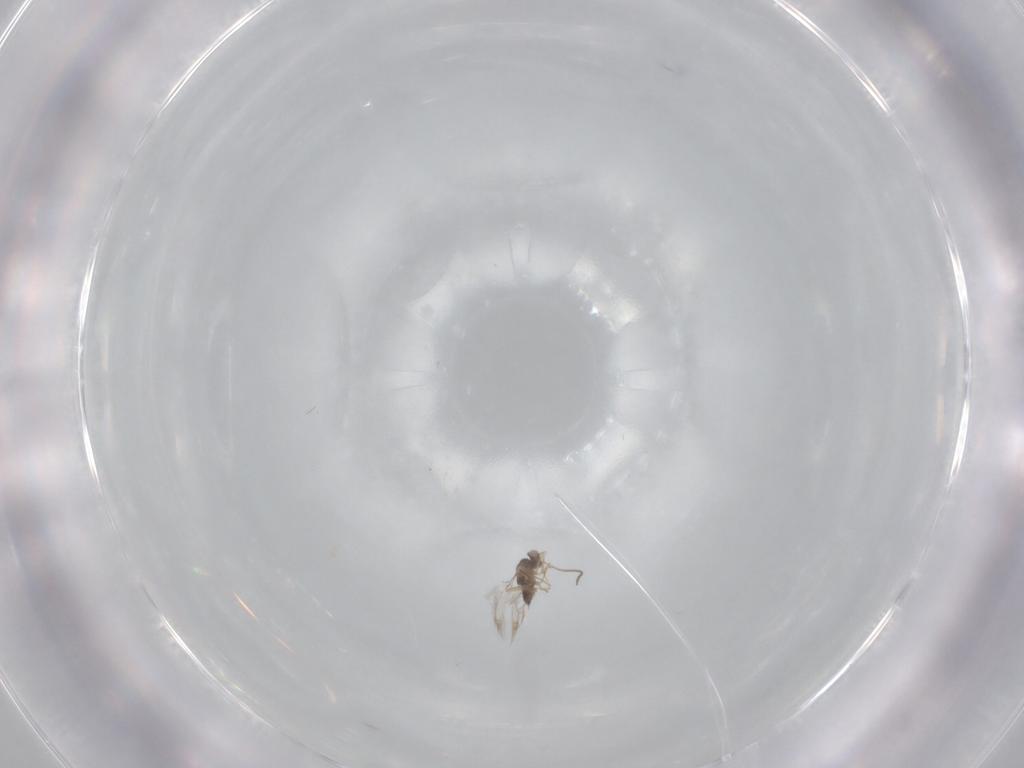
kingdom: Animalia
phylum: Arthropoda
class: Insecta
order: Hymenoptera
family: Mymaridae
